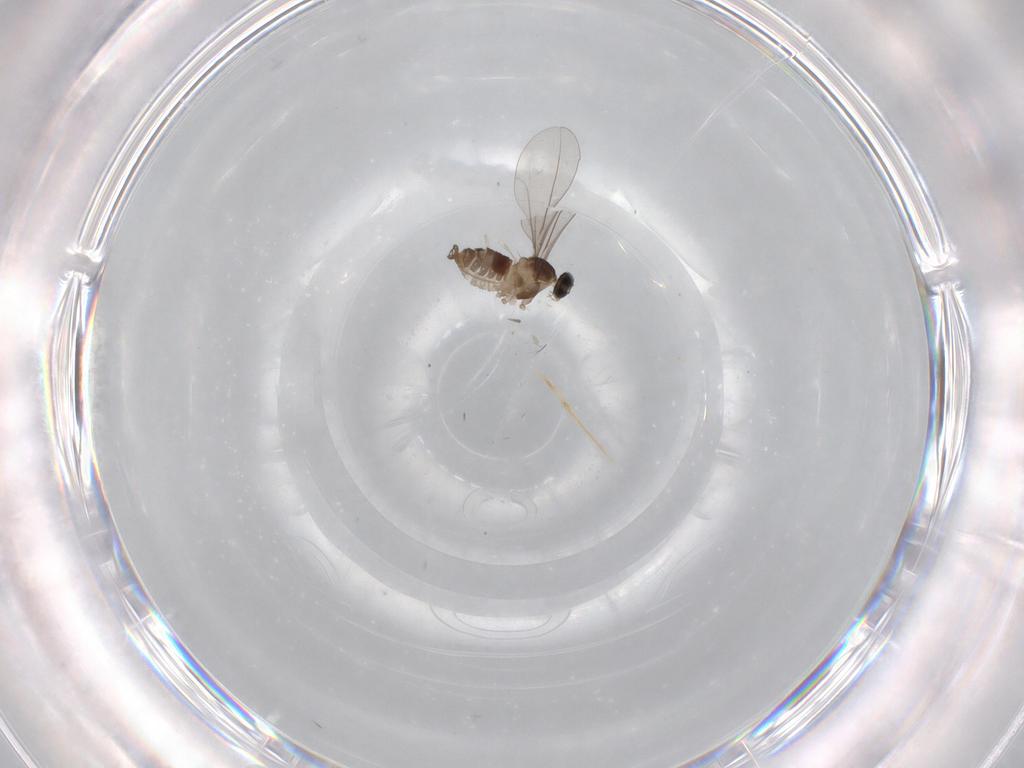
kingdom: Animalia
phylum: Arthropoda
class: Insecta
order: Diptera
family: Cecidomyiidae
